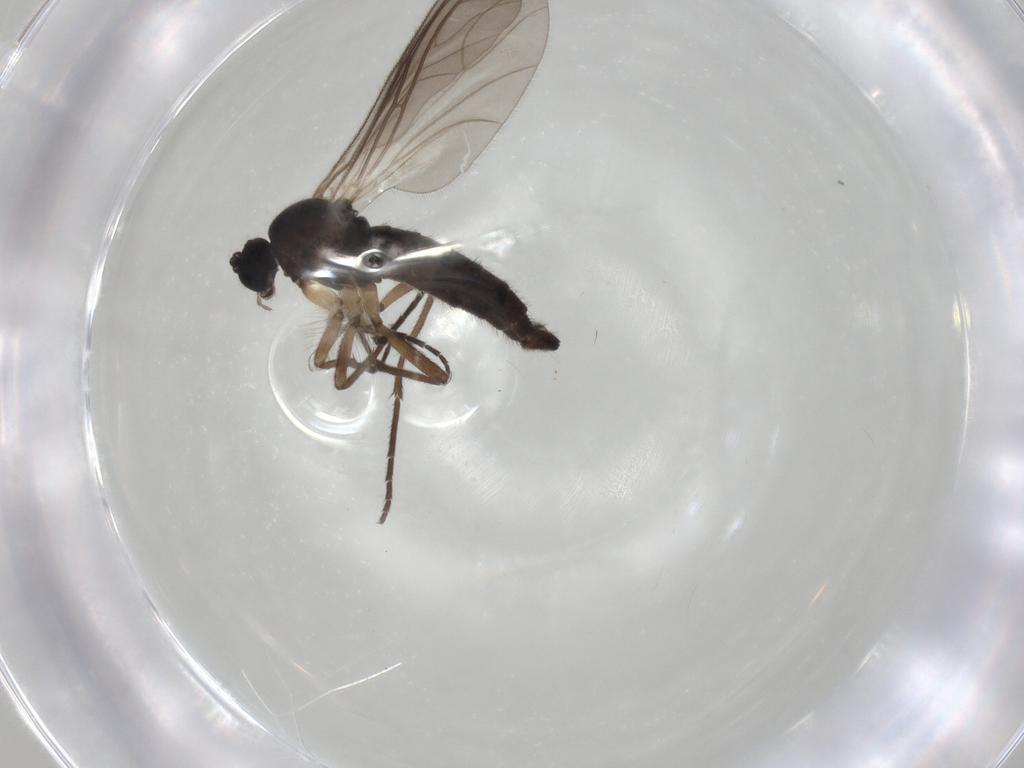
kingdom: Animalia
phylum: Arthropoda
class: Insecta
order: Diptera
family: Sciaridae
